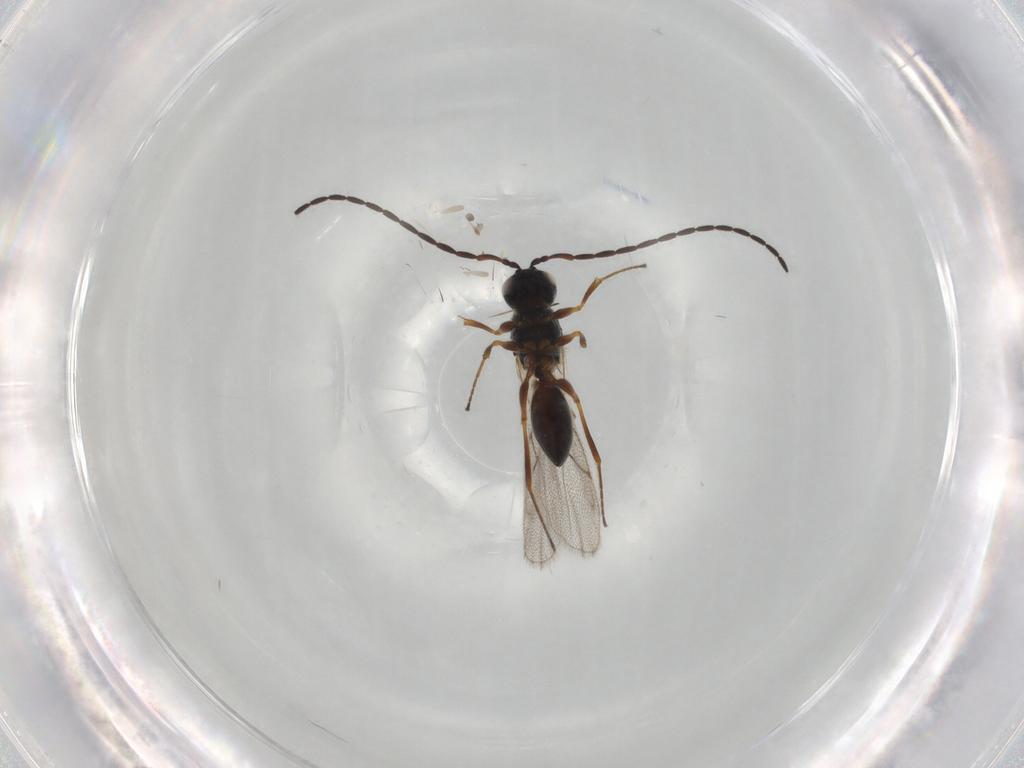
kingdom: Animalia
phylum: Arthropoda
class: Insecta
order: Hymenoptera
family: Figitidae
